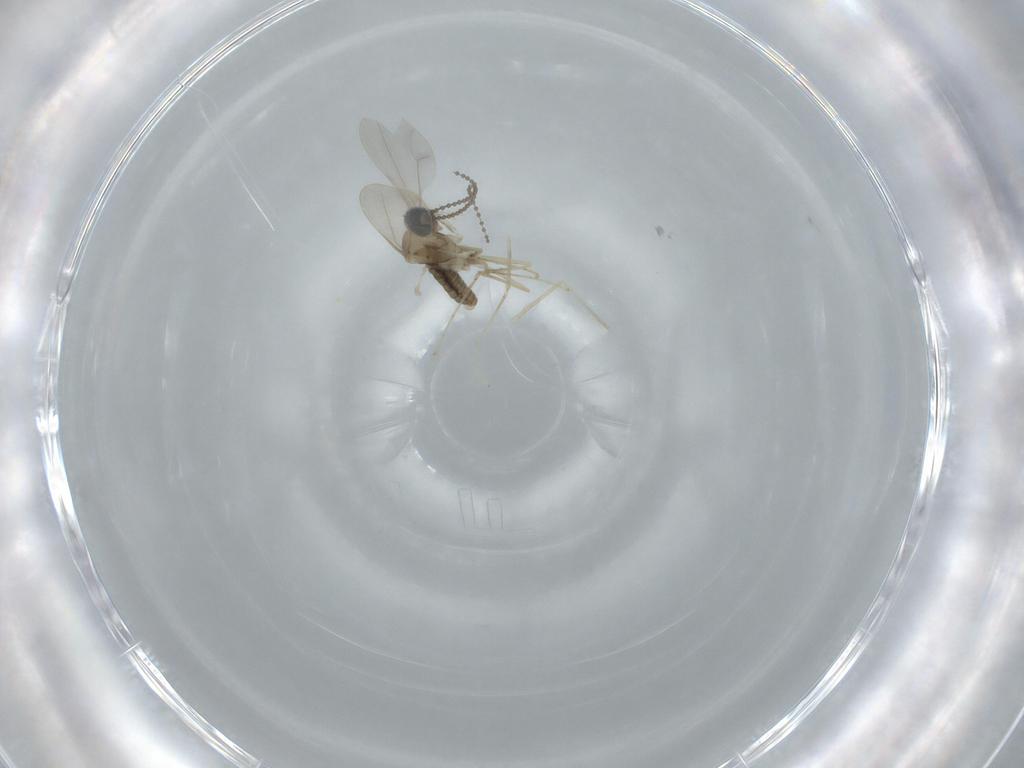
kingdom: Animalia
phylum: Arthropoda
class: Insecta
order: Diptera
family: Cecidomyiidae
